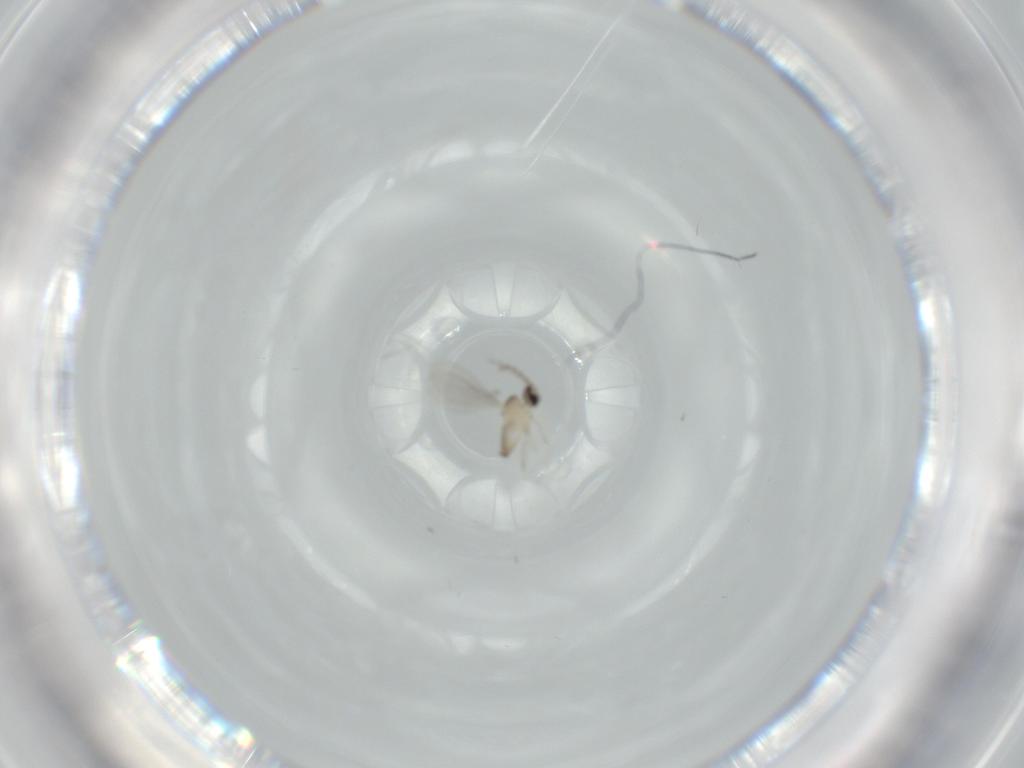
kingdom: Animalia
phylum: Arthropoda
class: Insecta
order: Diptera
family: Cecidomyiidae
